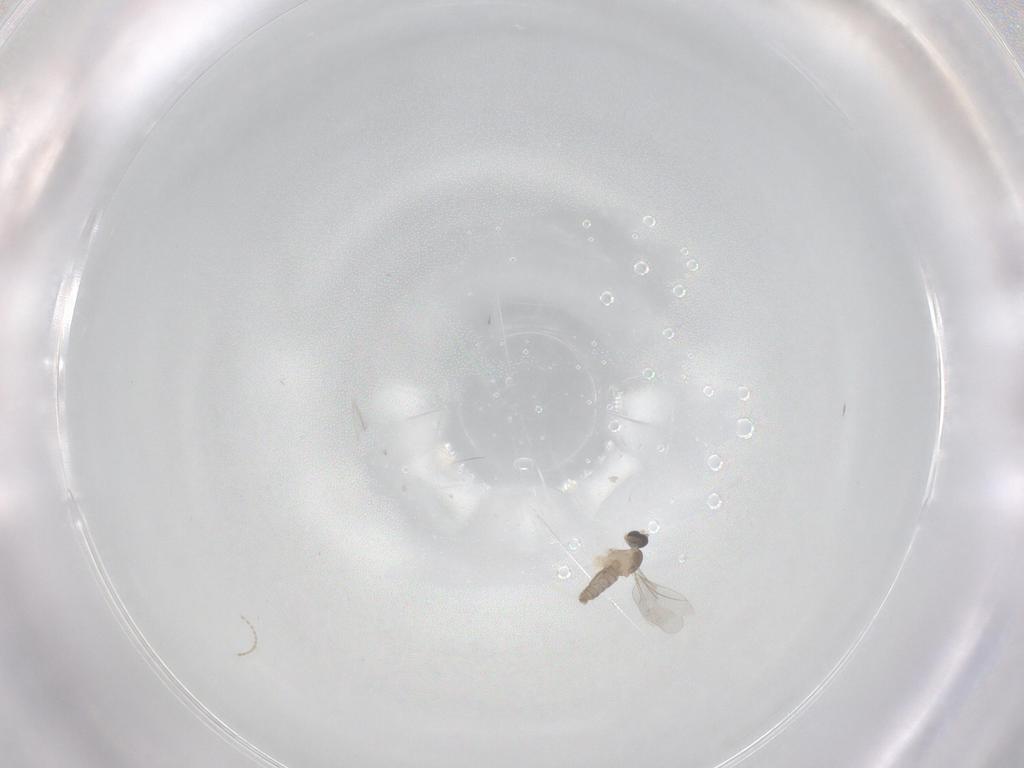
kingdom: Animalia
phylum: Arthropoda
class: Insecta
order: Diptera
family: Cecidomyiidae
